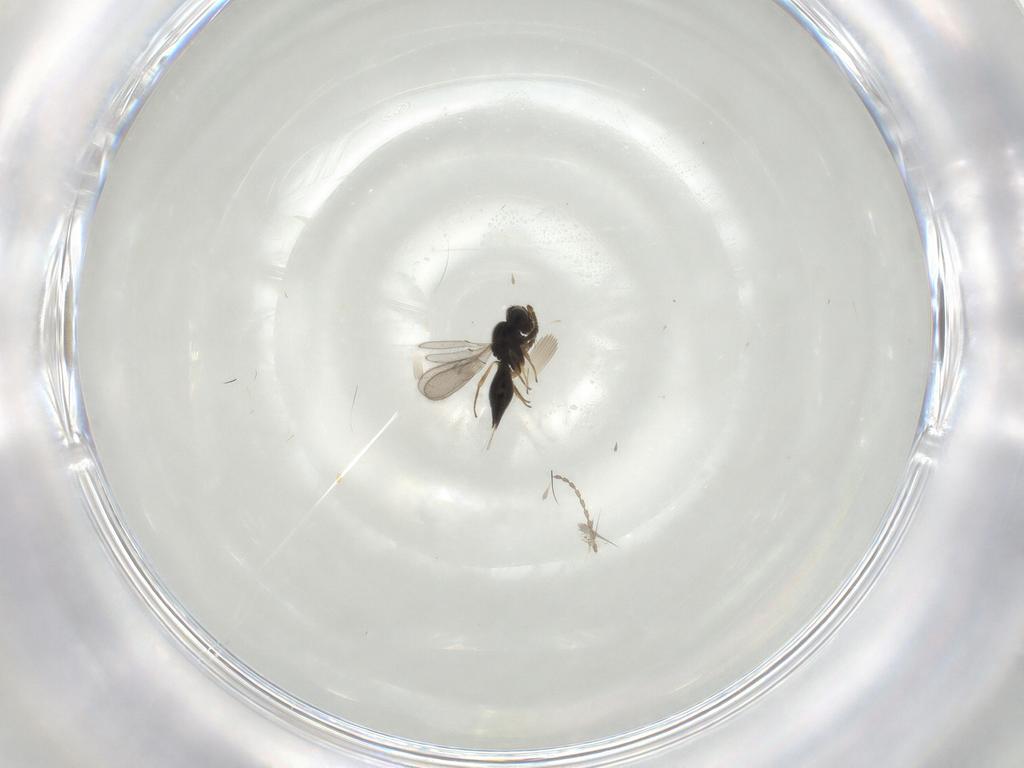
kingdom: Animalia
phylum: Arthropoda
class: Insecta
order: Hymenoptera
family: Scelionidae
